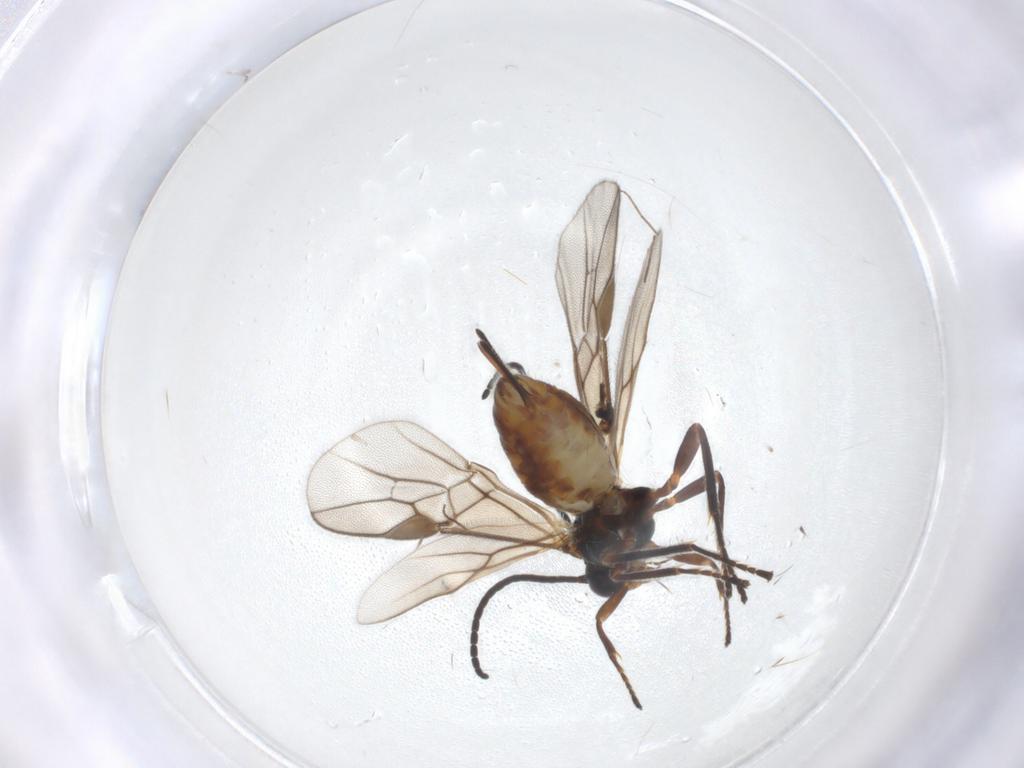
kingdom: Animalia
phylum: Arthropoda
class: Insecta
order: Hymenoptera
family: Braconidae
